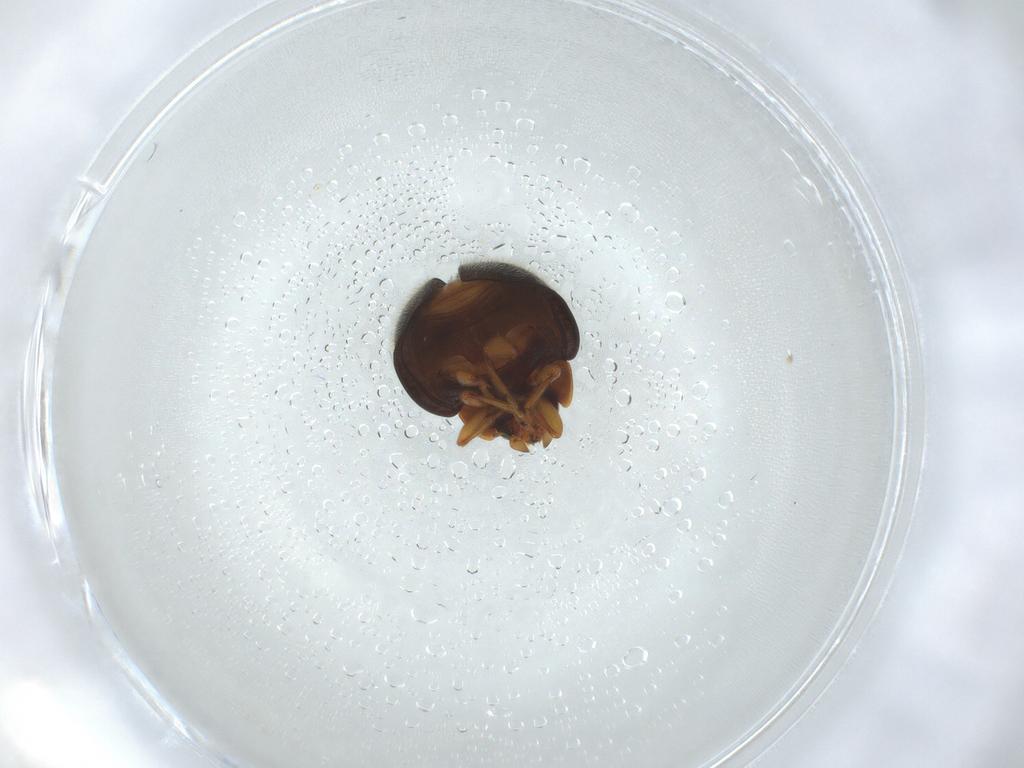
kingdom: Animalia
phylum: Arthropoda
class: Insecta
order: Coleoptera
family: Coccinellidae
